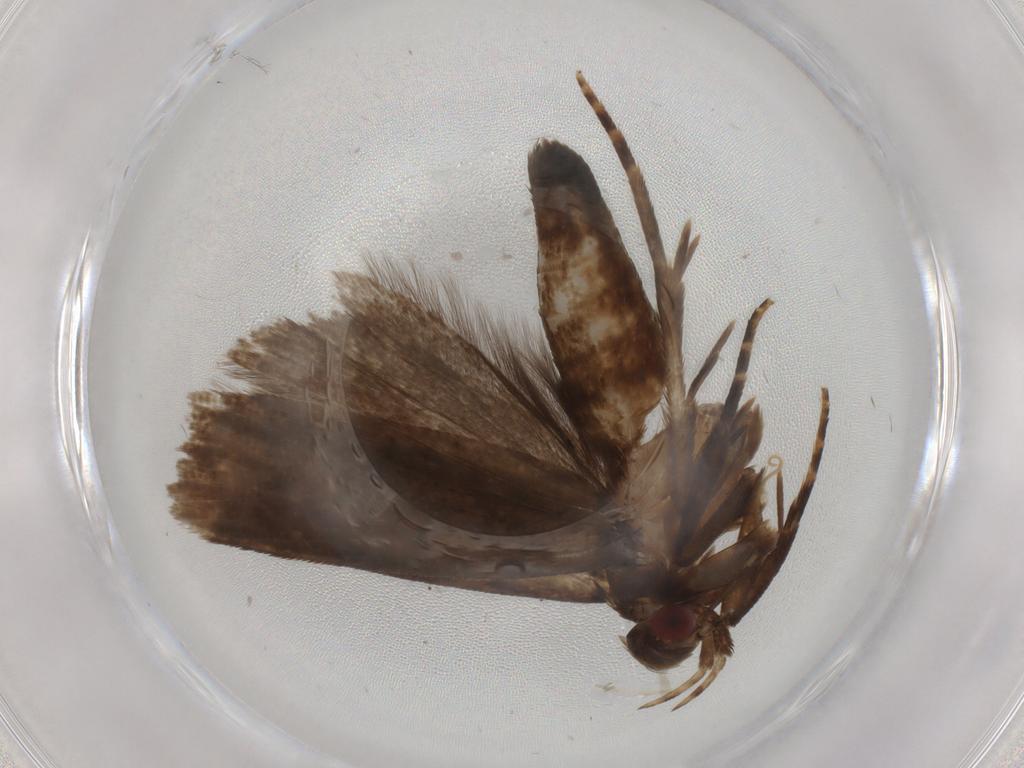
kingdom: Animalia
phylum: Arthropoda
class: Insecta
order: Lepidoptera
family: Gelechiidae
